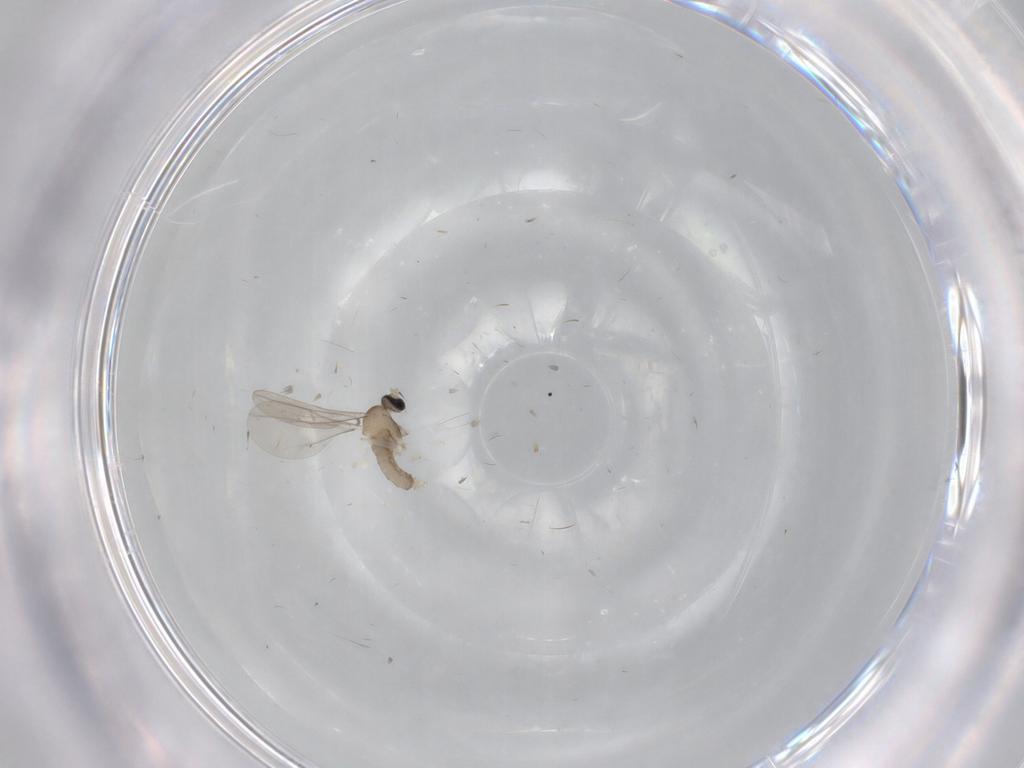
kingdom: Animalia
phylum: Arthropoda
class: Insecta
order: Diptera
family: Cecidomyiidae
